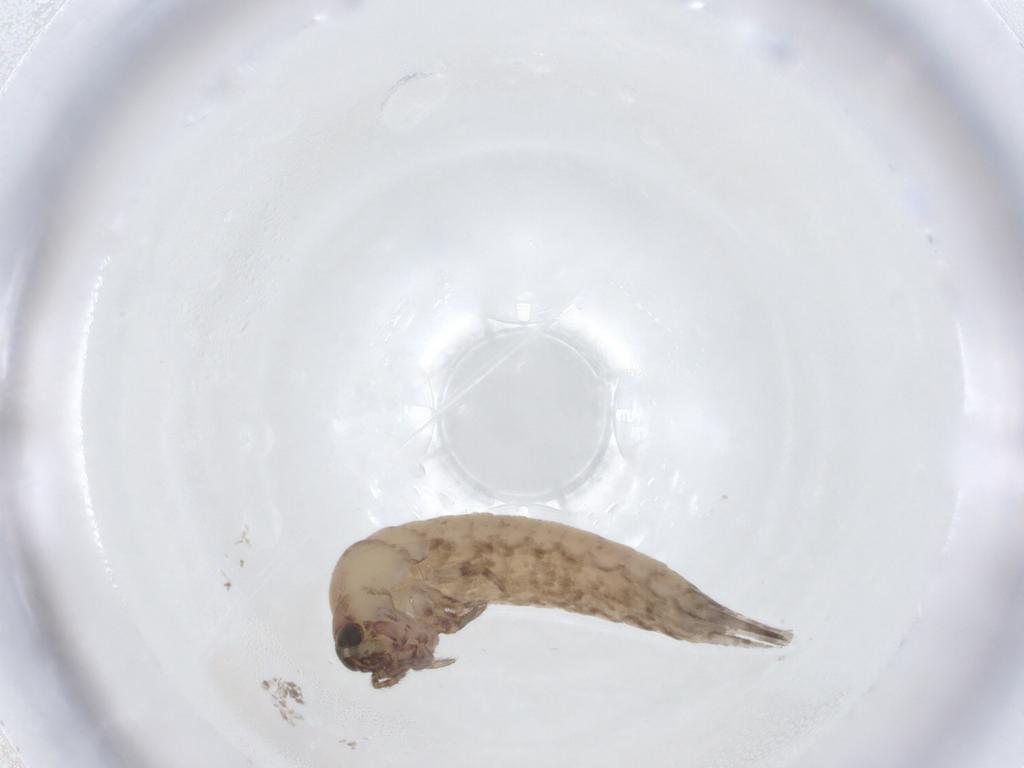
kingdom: Animalia
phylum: Arthropoda
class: Insecta
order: Archaeognatha
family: Machilidae
